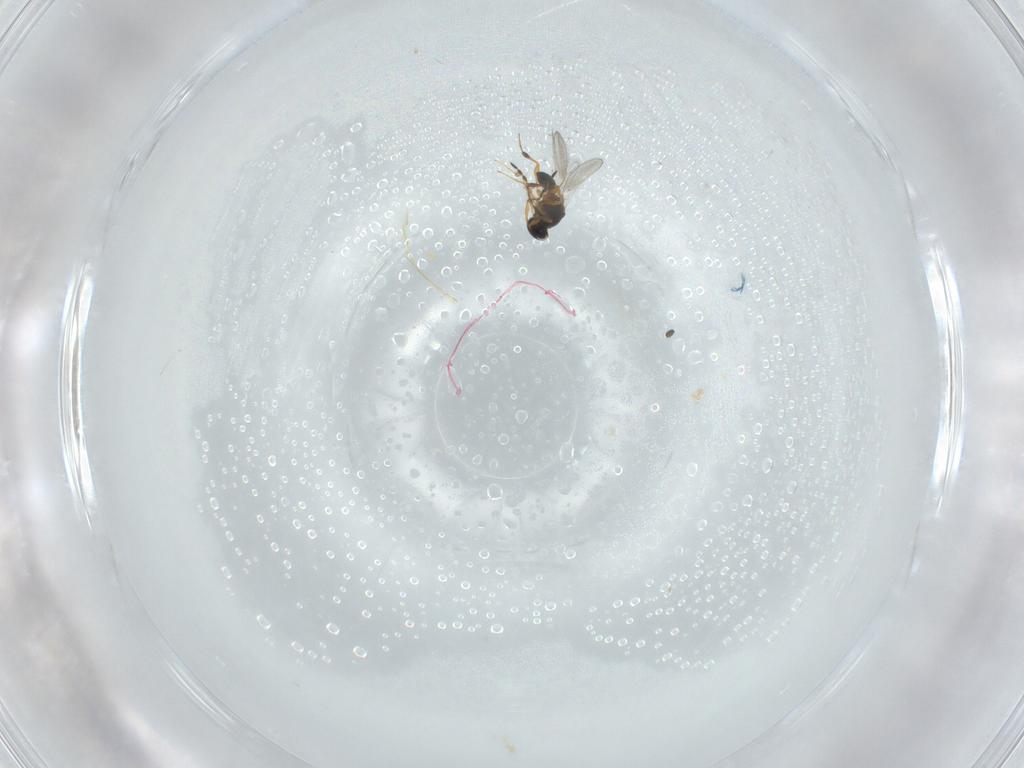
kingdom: Animalia
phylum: Arthropoda
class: Insecta
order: Hymenoptera
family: Platygastridae
